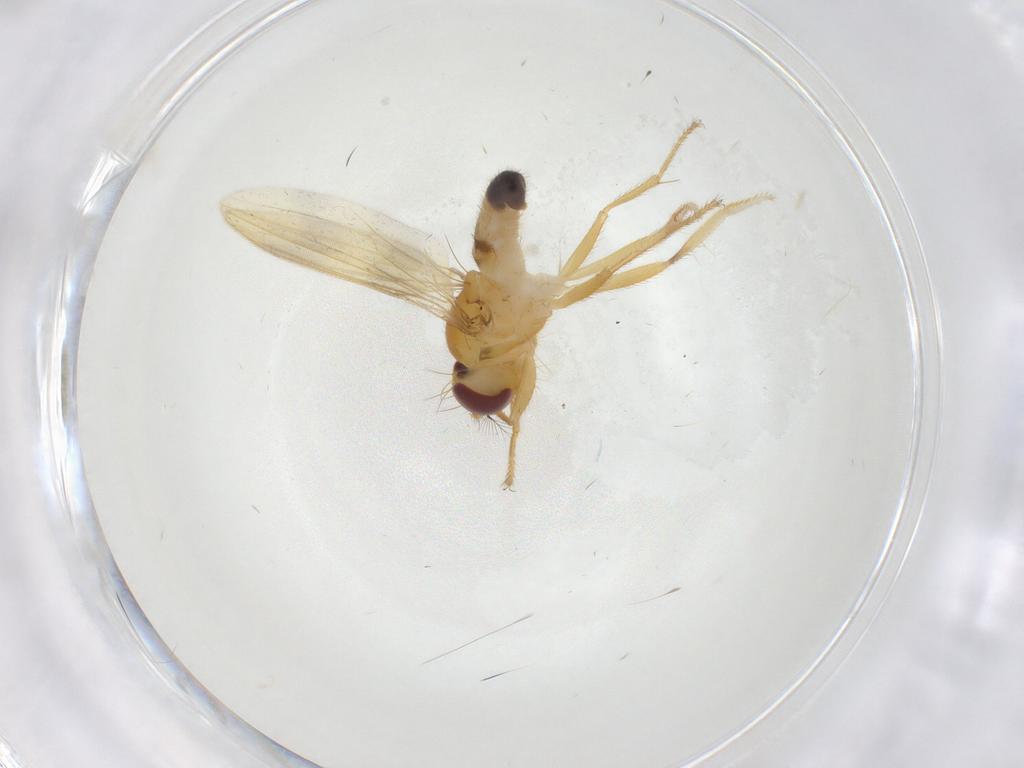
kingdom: Animalia
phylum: Arthropoda
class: Insecta
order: Diptera
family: Periscelididae
